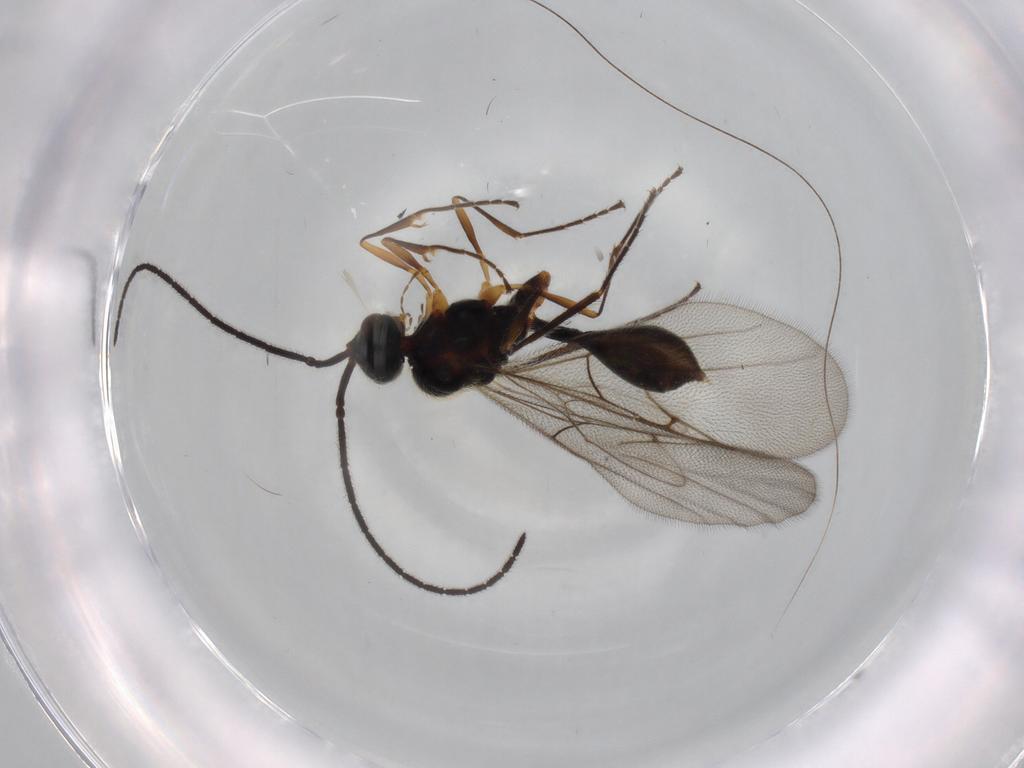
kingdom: Animalia
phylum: Arthropoda
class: Insecta
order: Hymenoptera
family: Diapriidae
